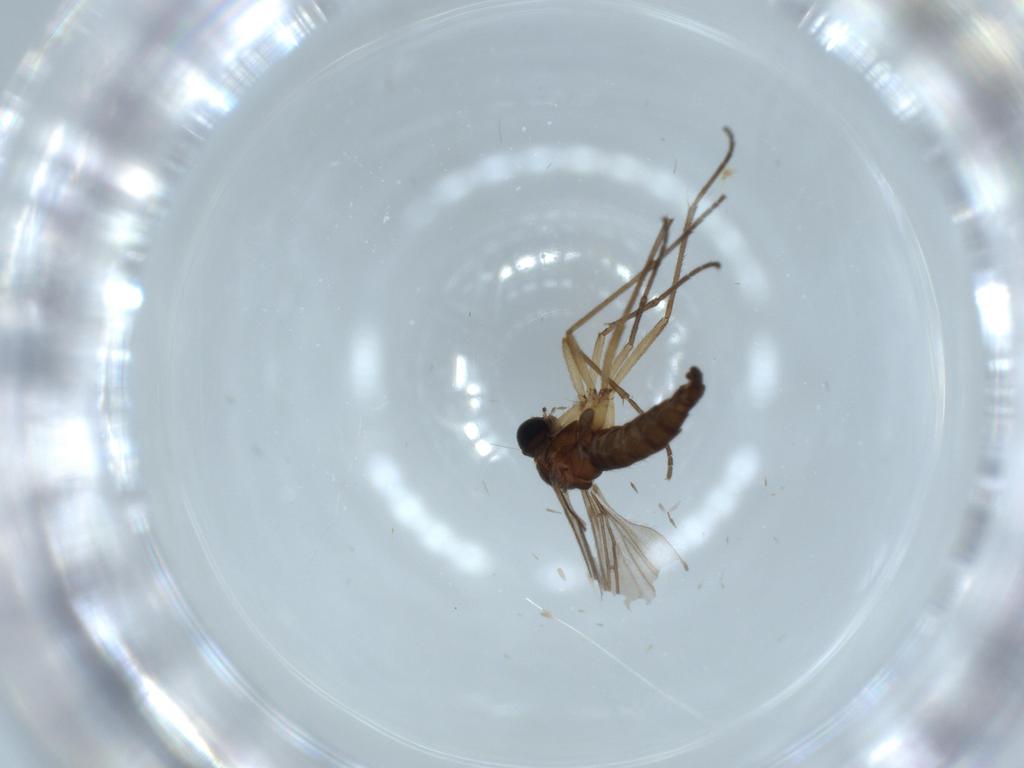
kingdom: Animalia
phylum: Arthropoda
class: Insecta
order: Diptera
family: Sciaridae
